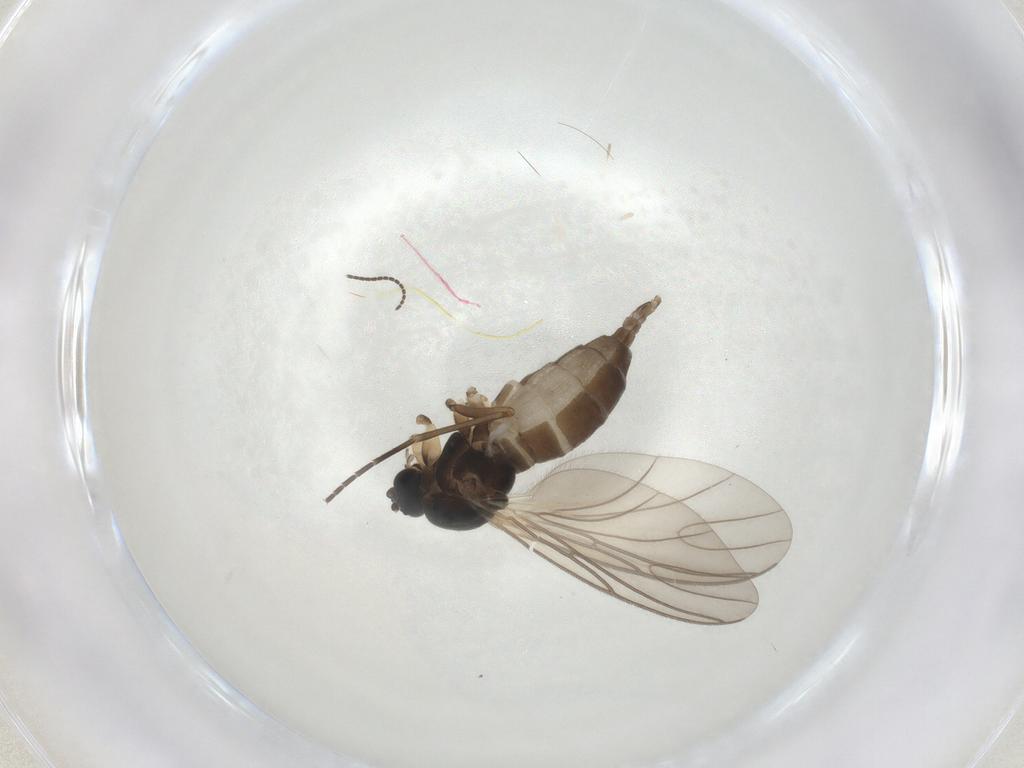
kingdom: Animalia
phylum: Arthropoda
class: Insecta
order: Diptera
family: Sciaridae
